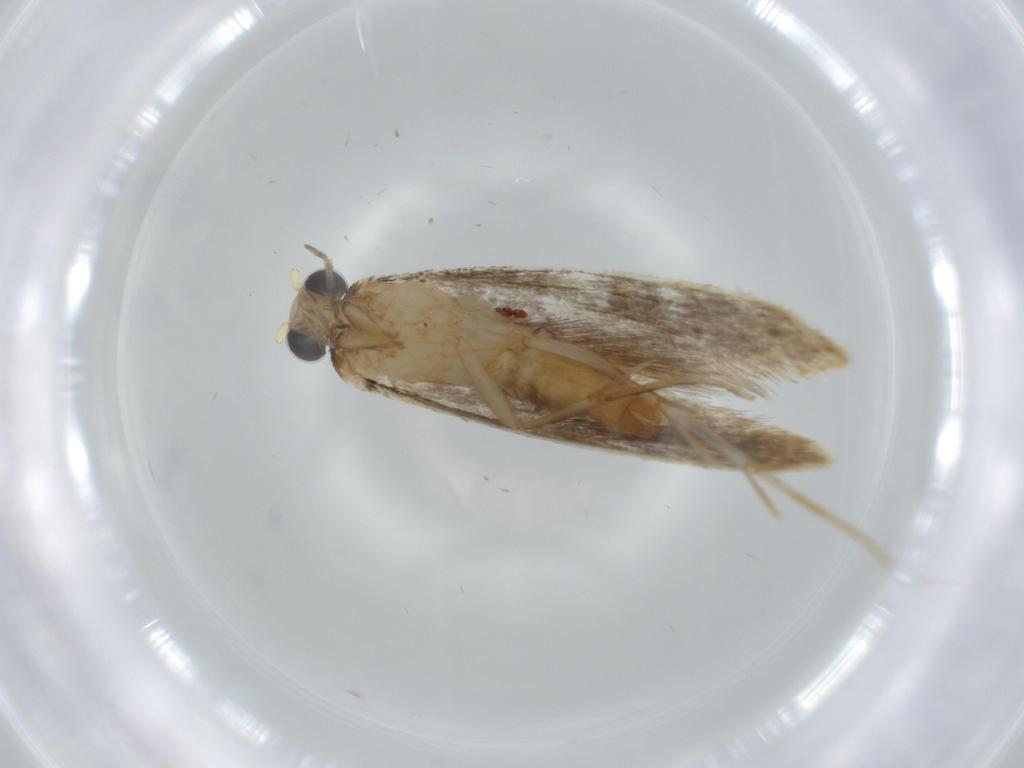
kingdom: Animalia
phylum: Arthropoda
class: Insecta
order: Lepidoptera
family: Tineidae
